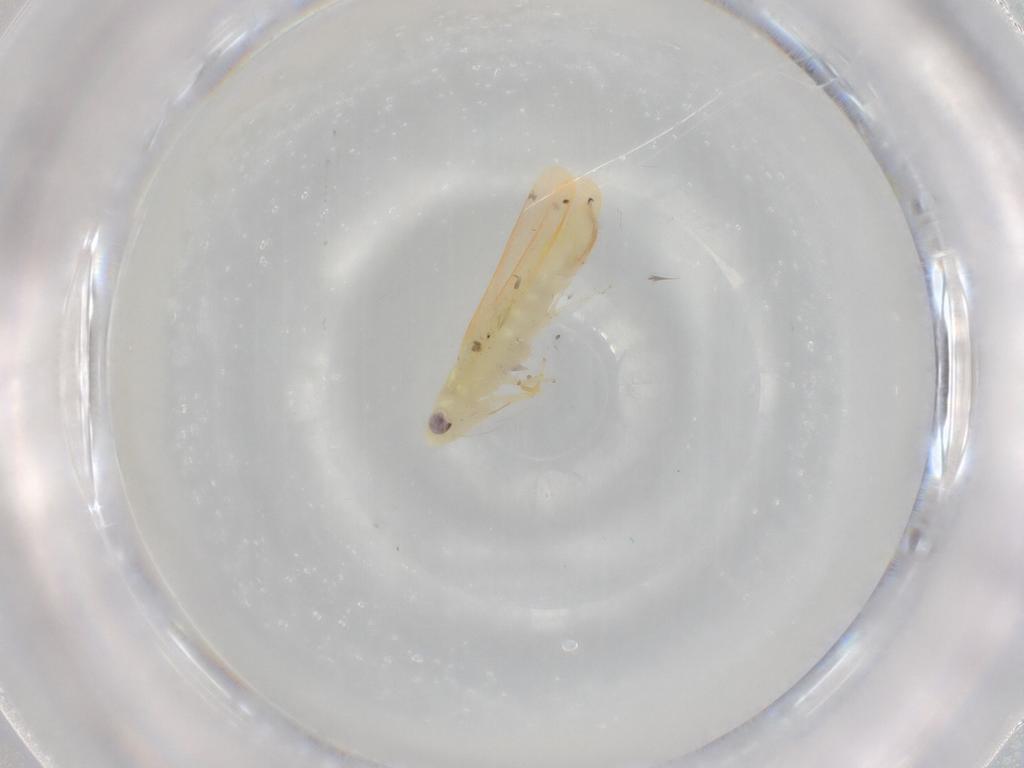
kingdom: Animalia
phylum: Arthropoda
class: Insecta
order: Hemiptera
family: Cicadellidae
